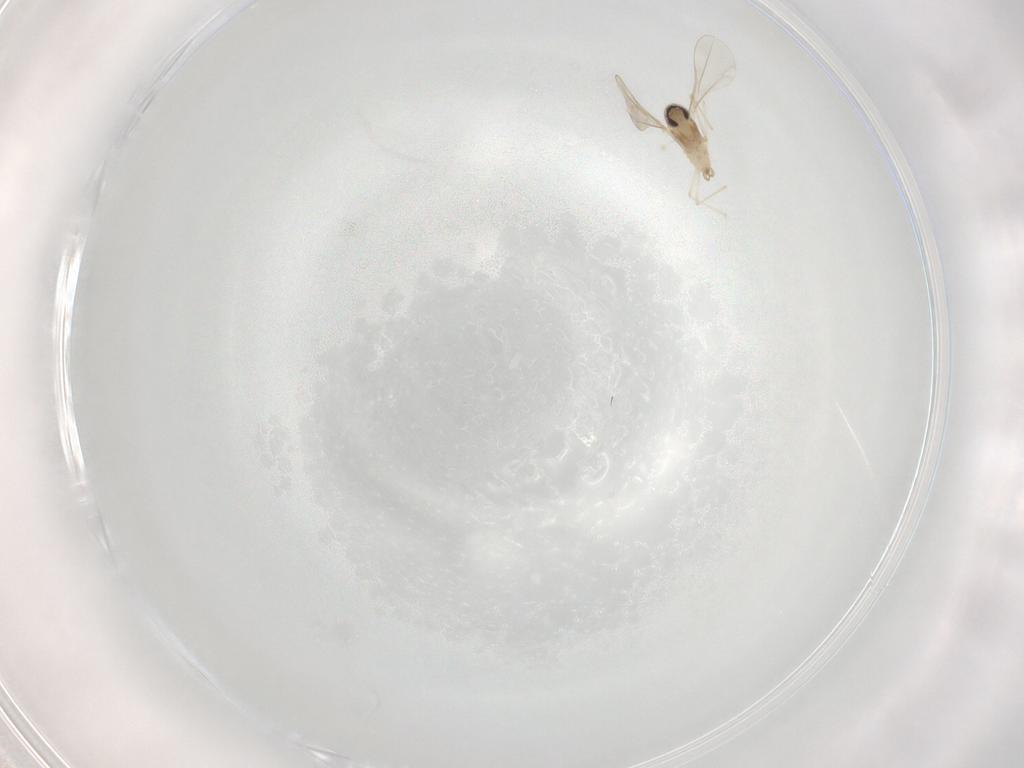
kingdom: Animalia
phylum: Arthropoda
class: Insecta
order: Diptera
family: Cecidomyiidae
